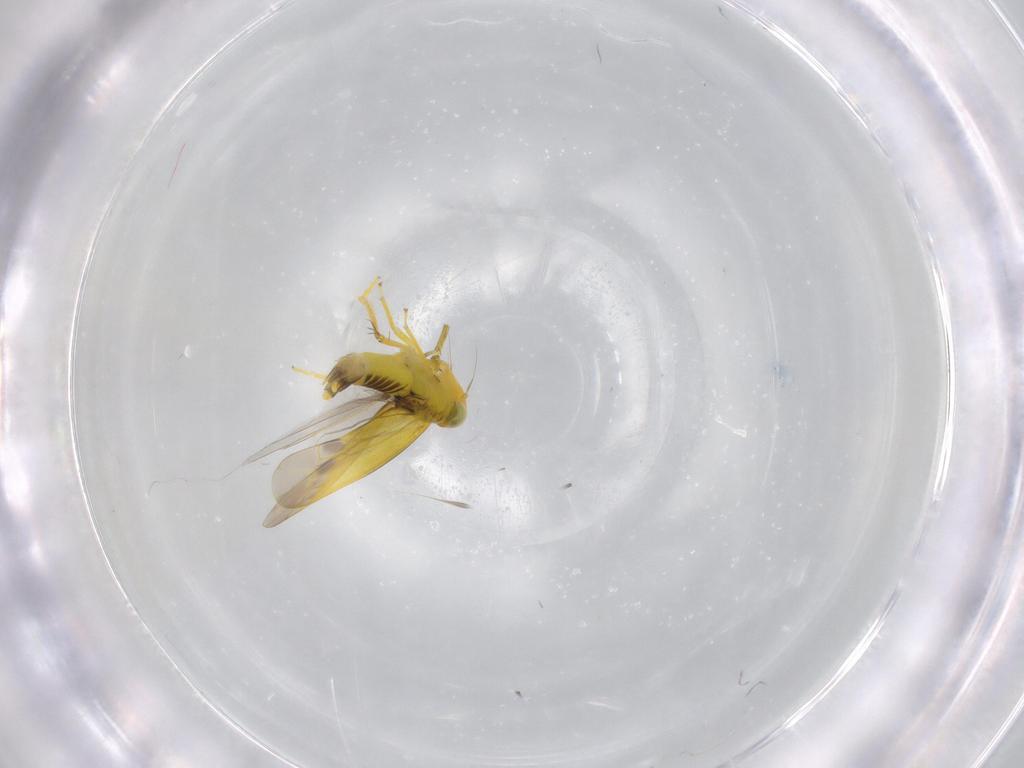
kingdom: Animalia
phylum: Arthropoda
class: Insecta
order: Hemiptera
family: Cicadellidae
